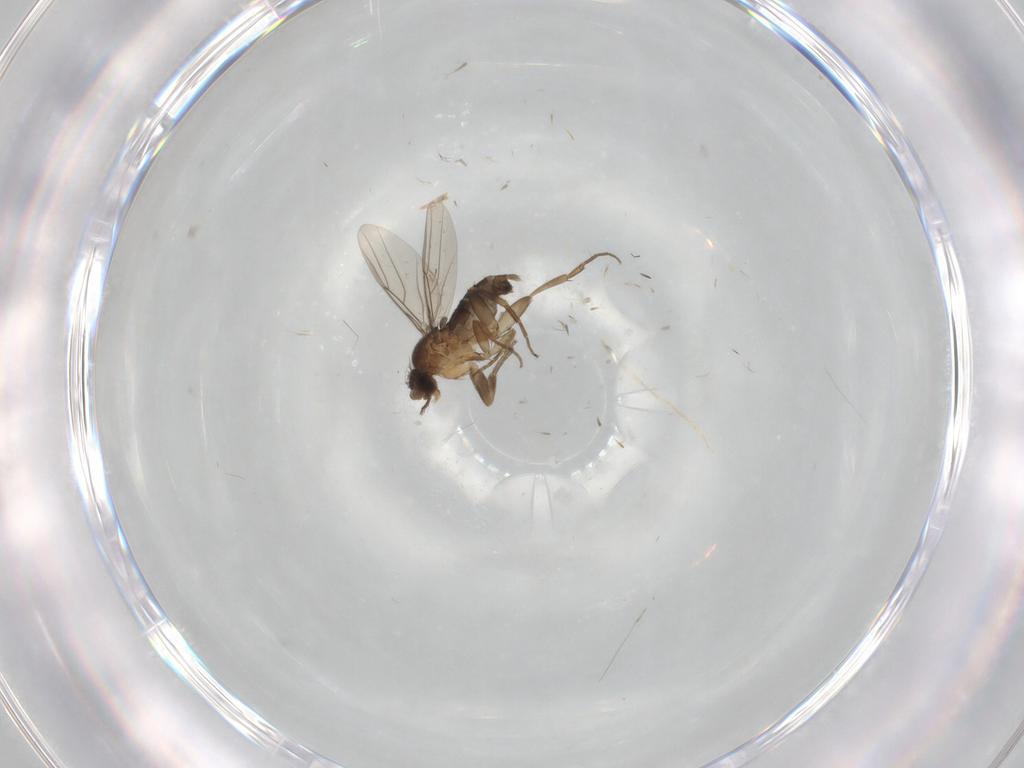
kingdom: Animalia
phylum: Arthropoda
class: Insecta
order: Diptera
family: Phoridae
